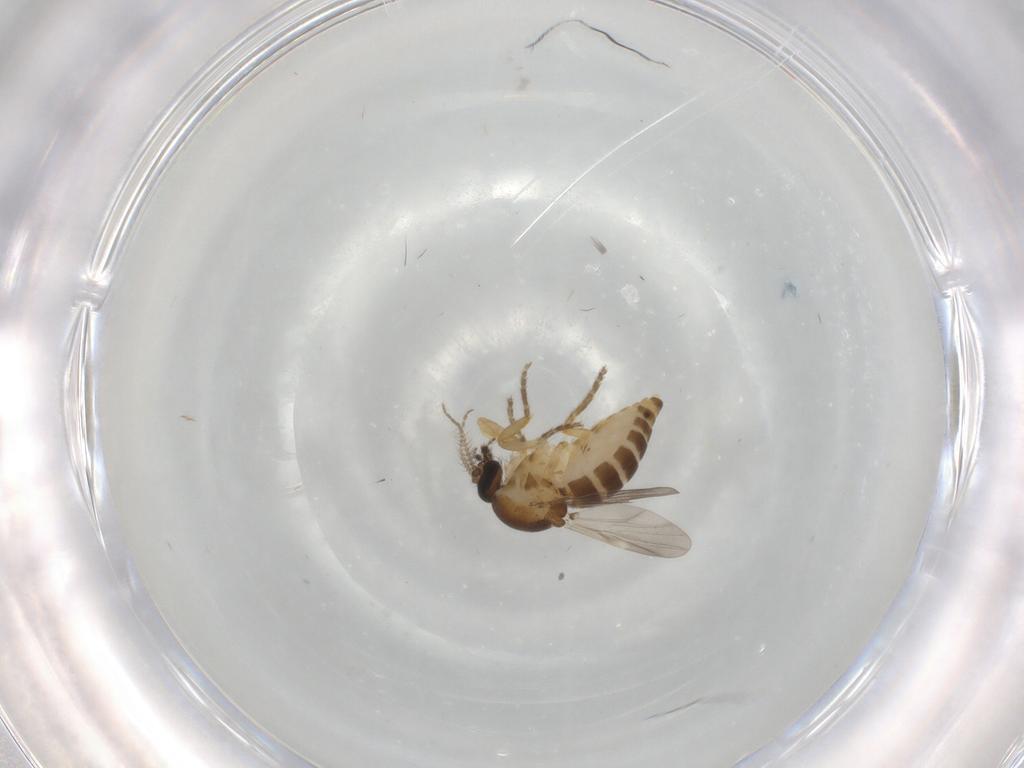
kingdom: Animalia
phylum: Arthropoda
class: Insecta
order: Diptera
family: Ceratopogonidae
